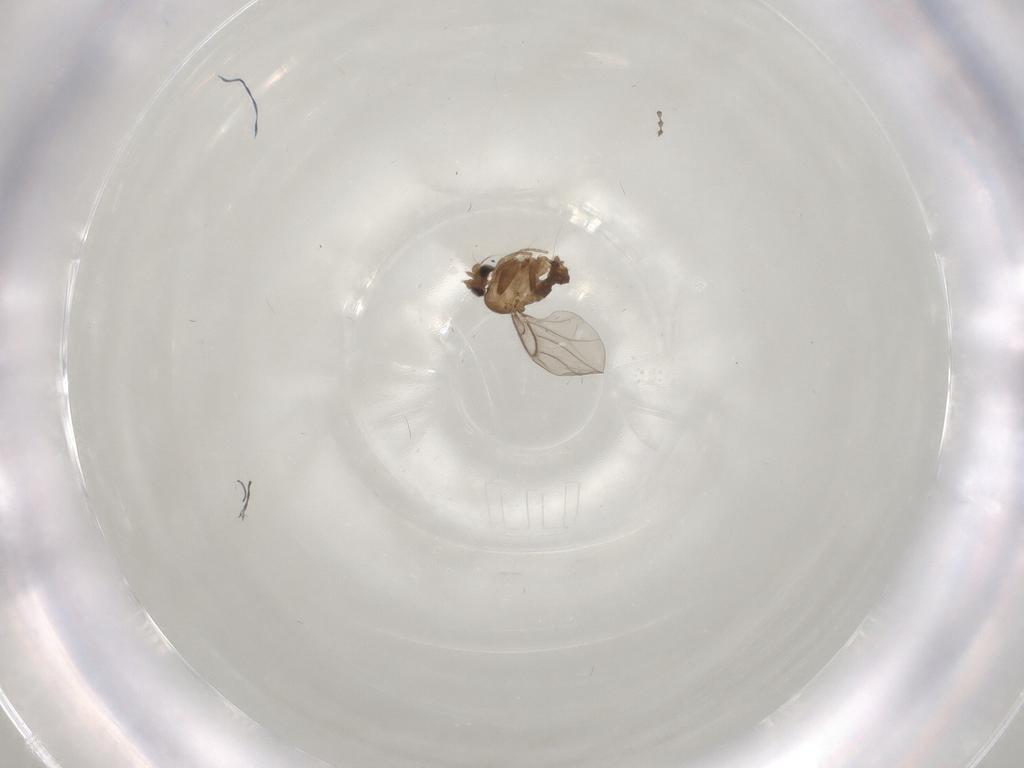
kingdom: Animalia
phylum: Arthropoda
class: Insecta
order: Diptera
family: Cecidomyiidae
